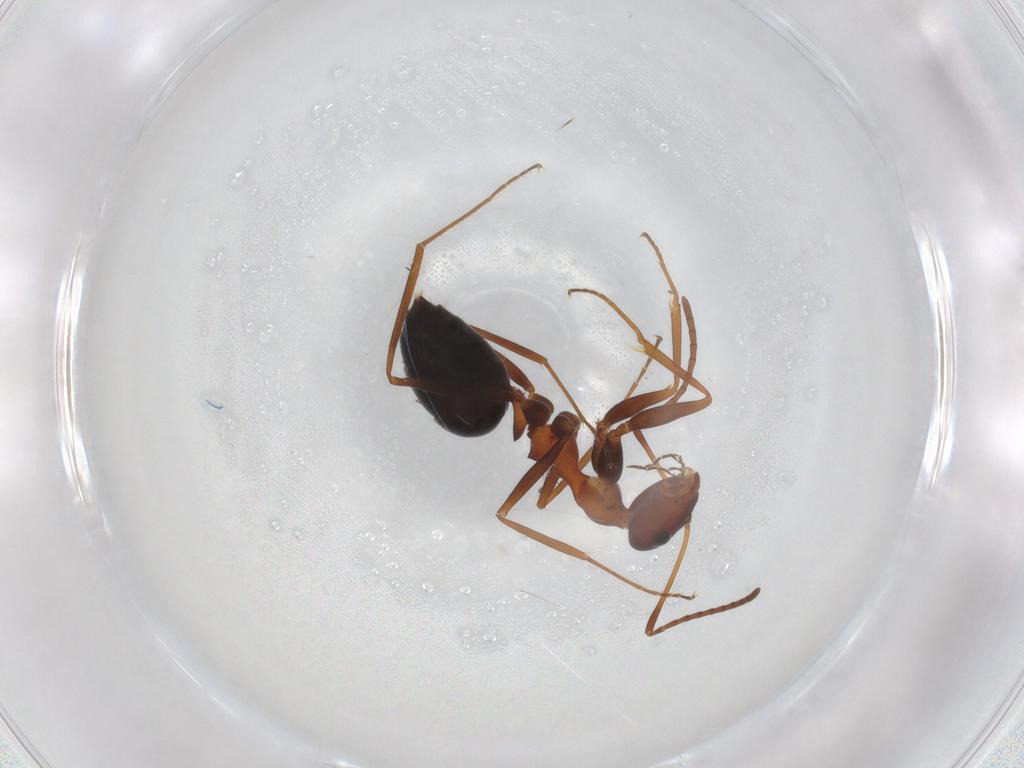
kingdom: Animalia
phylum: Arthropoda
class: Insecta
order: Hymenoptera
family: Formicidae
